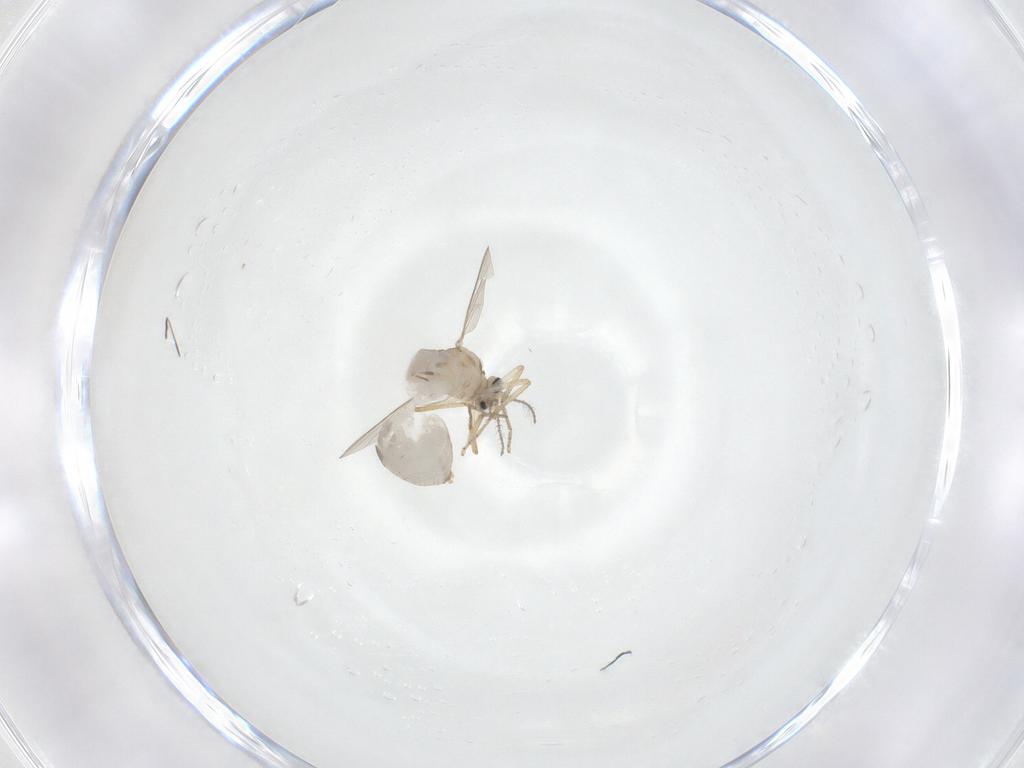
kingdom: Animalia
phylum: Arthropoda
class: Insecta
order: Diptera
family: Ceratopogonidae
